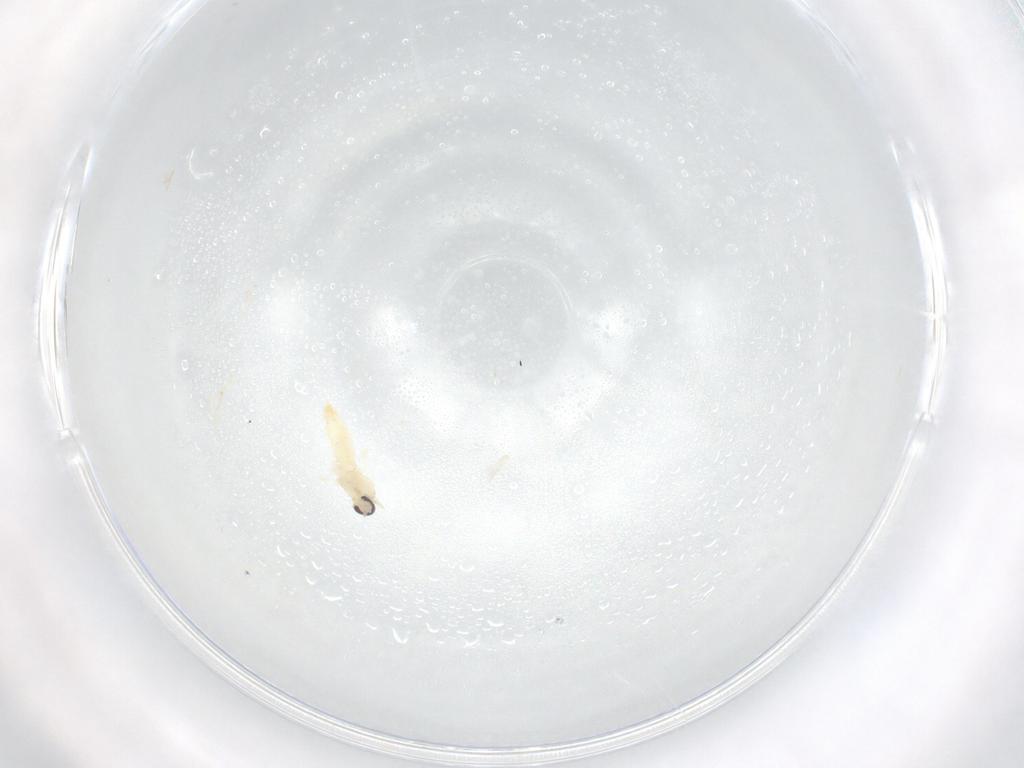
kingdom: Animalia
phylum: Arthropoda
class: Insecta
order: Diptera
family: Cecidomyiidae
